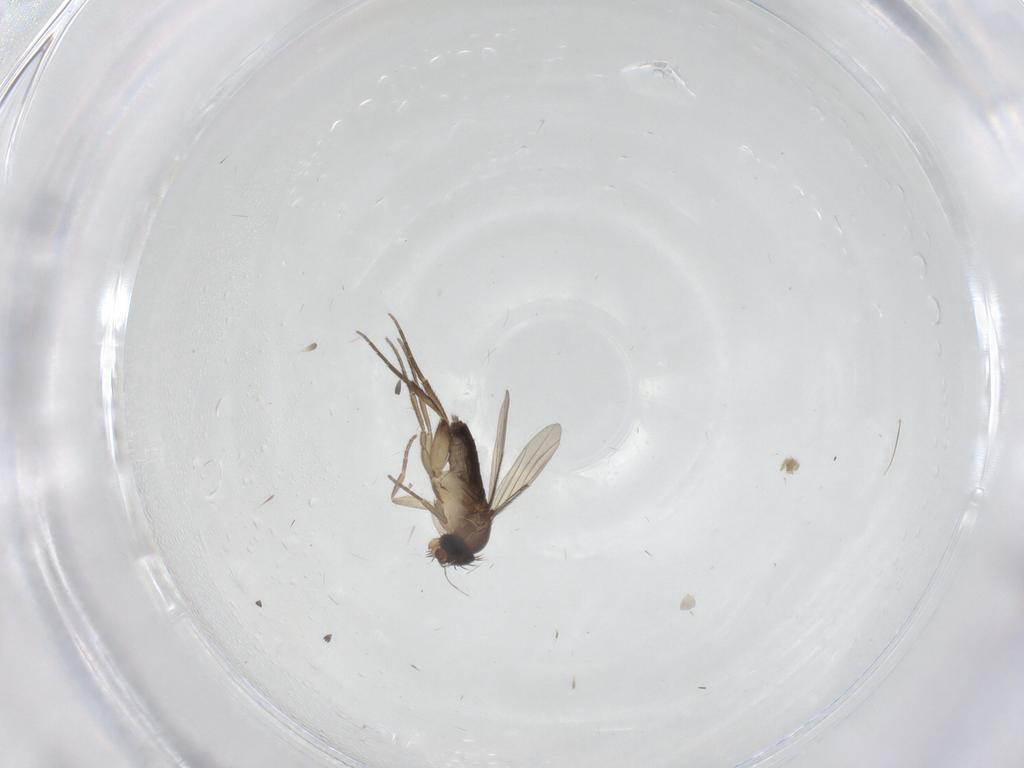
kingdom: Animalia
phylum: Arthropoda
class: Insecta
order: Diptera
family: Phoridae
